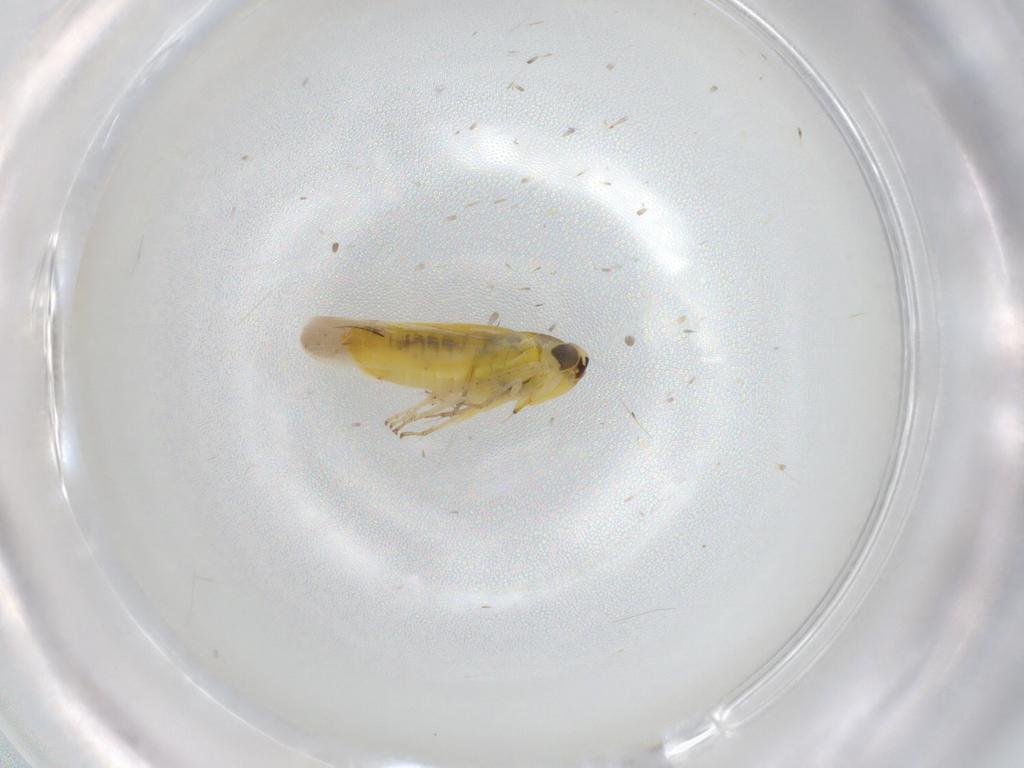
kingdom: Animalia
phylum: Arthropoda
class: Insecta
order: Hemiptera
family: Cicadellidae
